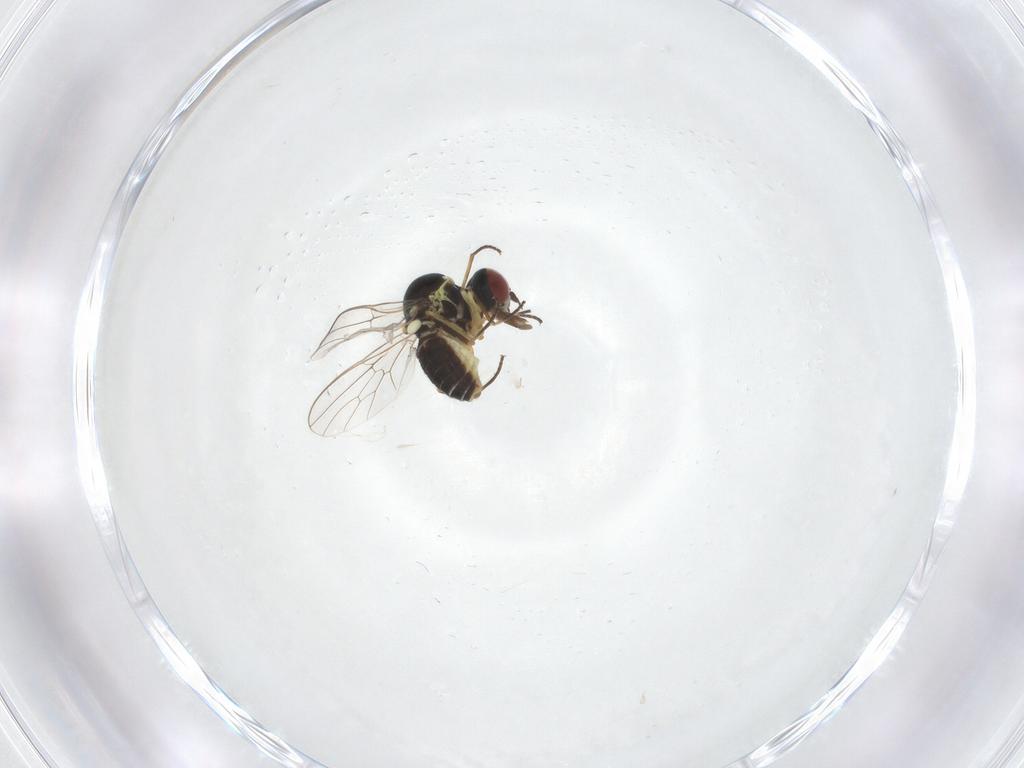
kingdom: Animalia
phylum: Arthropoda
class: Insecta
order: Diptera
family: Bombyliidae
